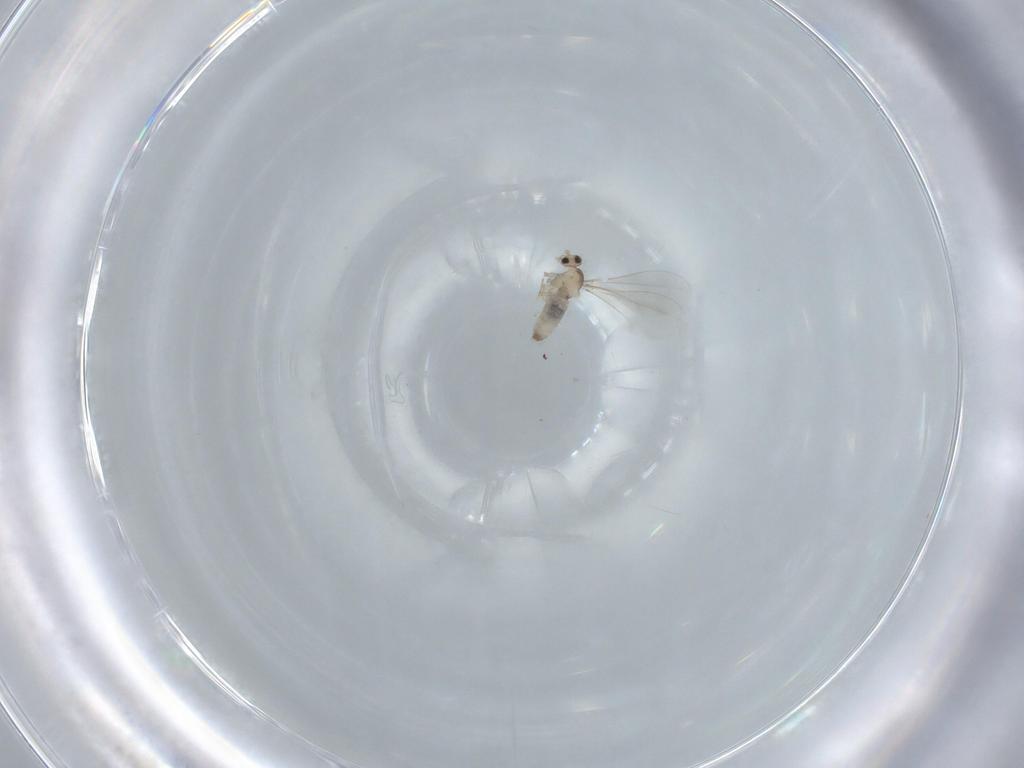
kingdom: Animalia
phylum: Arthropoda
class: Insecta
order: Diptera
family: Cecidomyiidae
